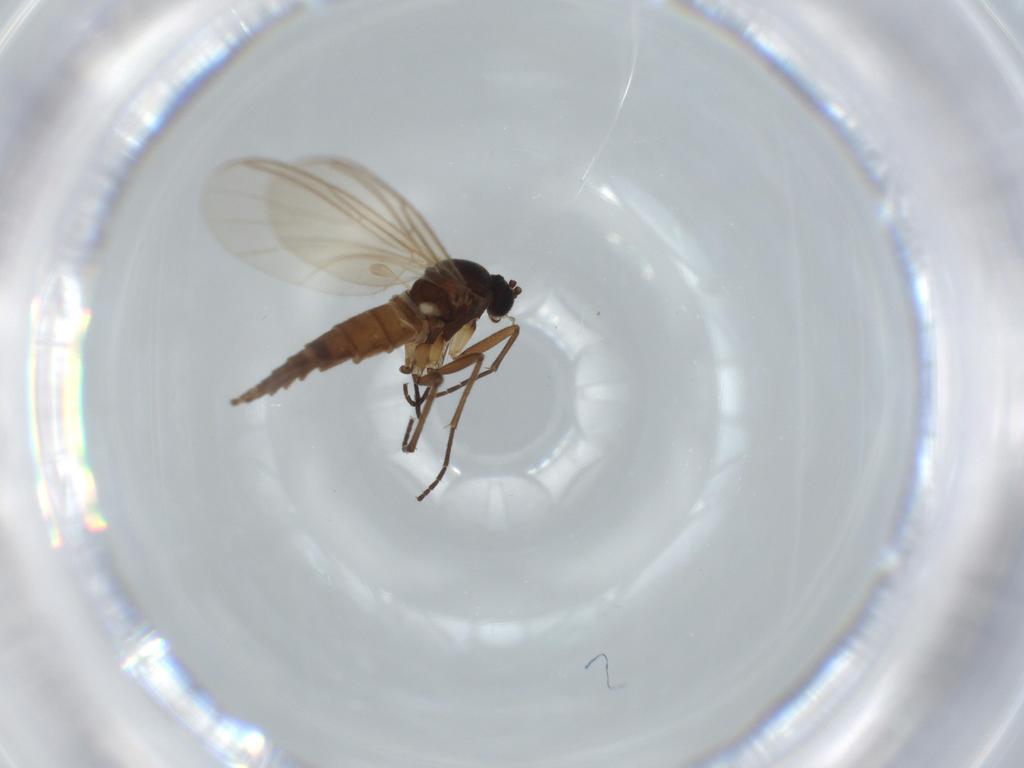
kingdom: Animalia
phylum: Arthropoda
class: Insecta
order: Diptera
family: Sciaridae
